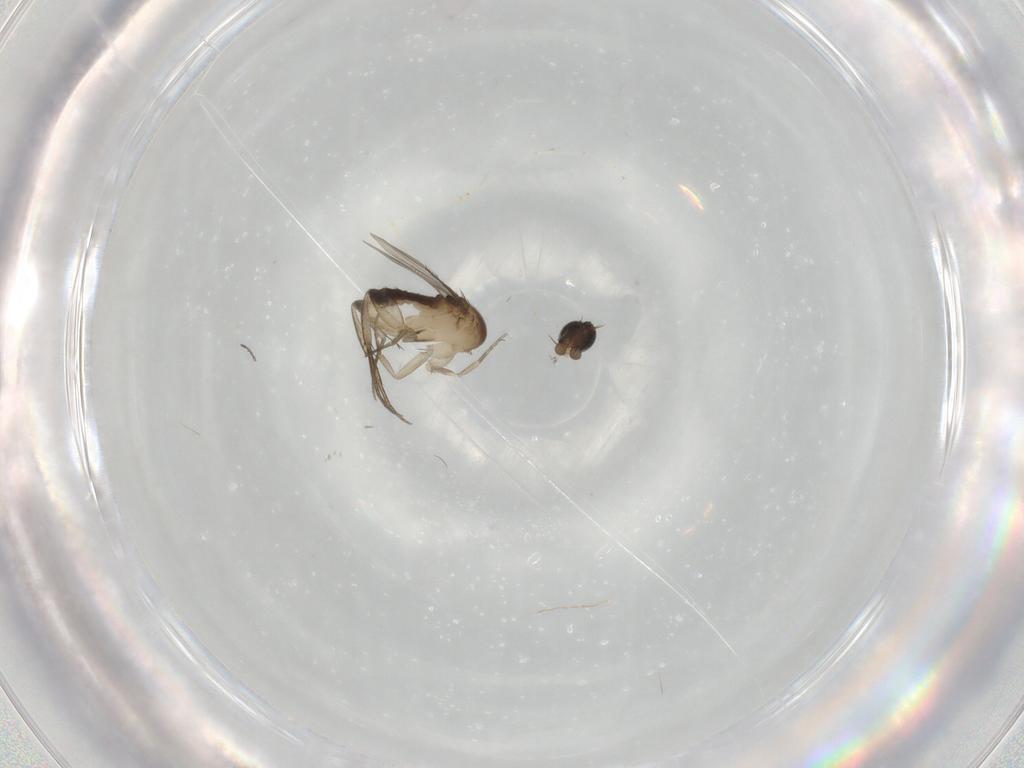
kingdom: Animalia
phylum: Arthropoda
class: Insecta
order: Diptera
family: Phoridae
